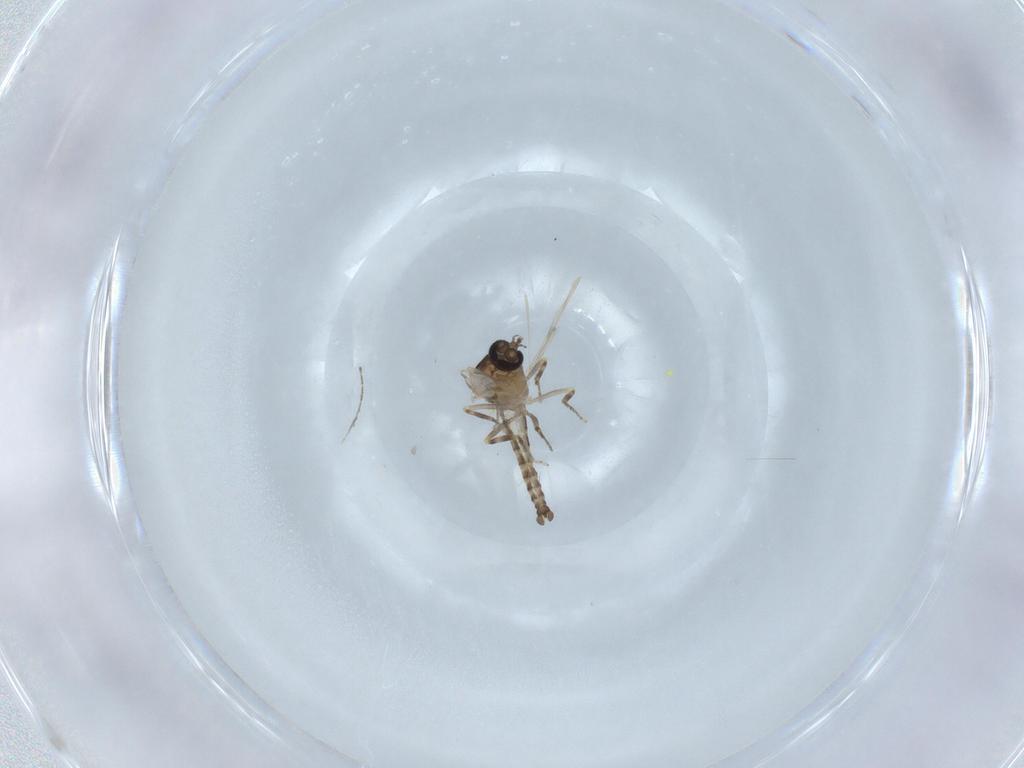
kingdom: Animalia
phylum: Arthropoda
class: Insecta
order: Diptera
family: Ceratopogonidae
